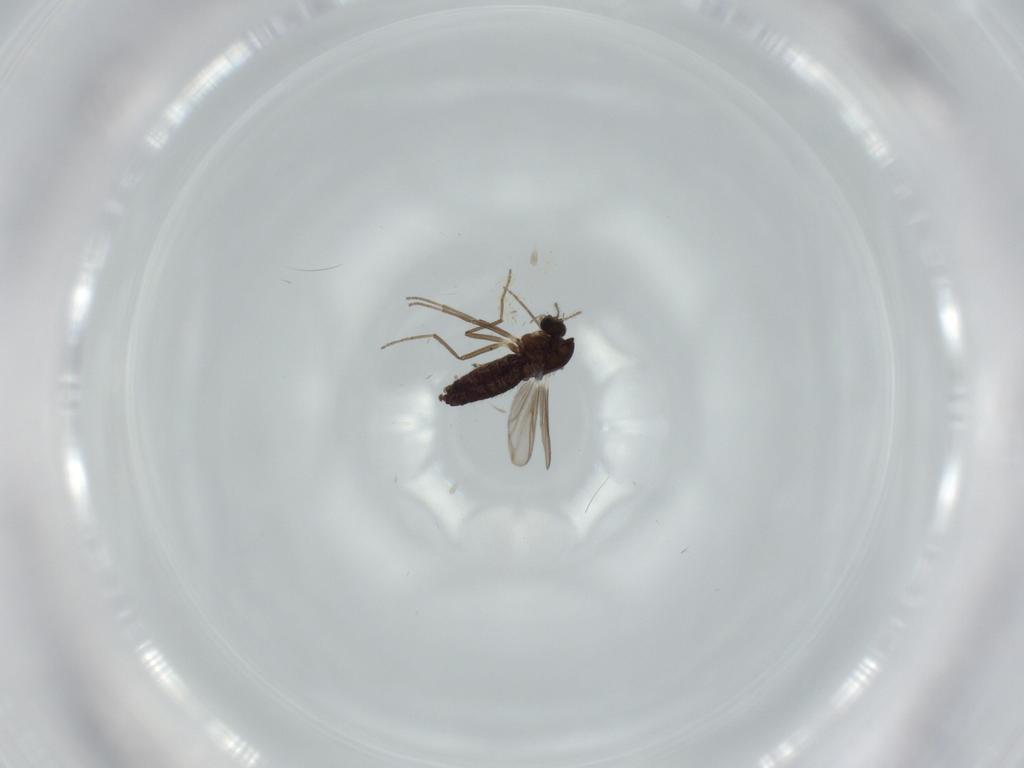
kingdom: Animalia
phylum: Arthropoda
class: Insecta
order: Diptera
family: Chironomidae
